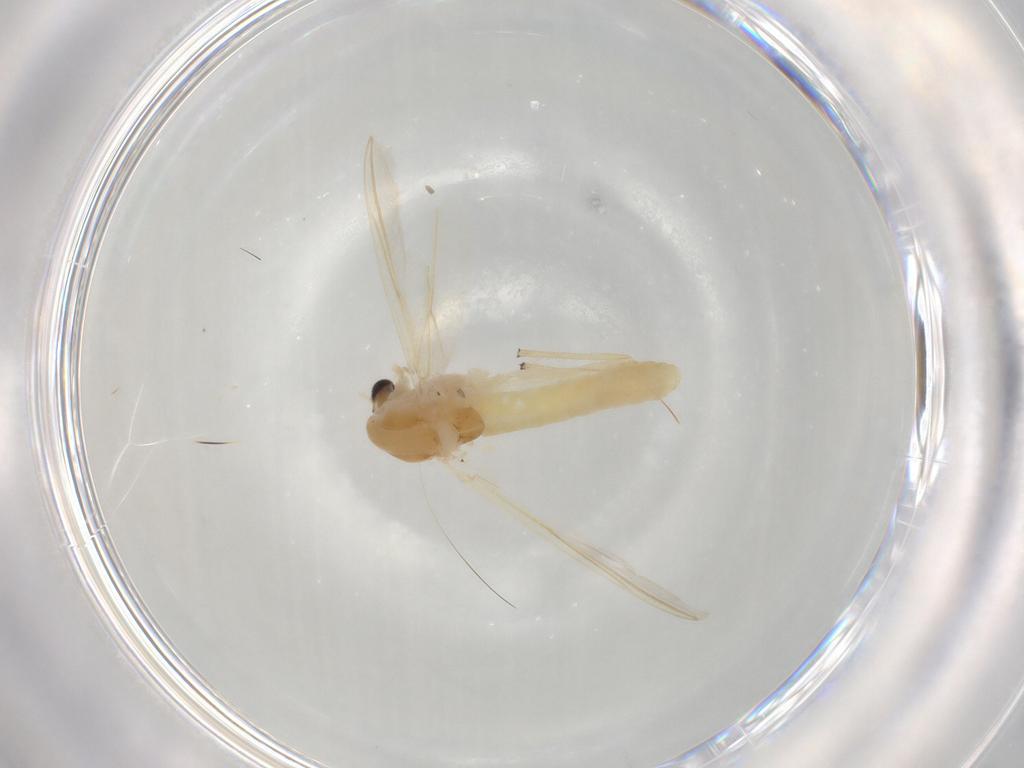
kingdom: Animalia
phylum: Arthropoda
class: Insecta
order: Diptera
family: Chironomidae
